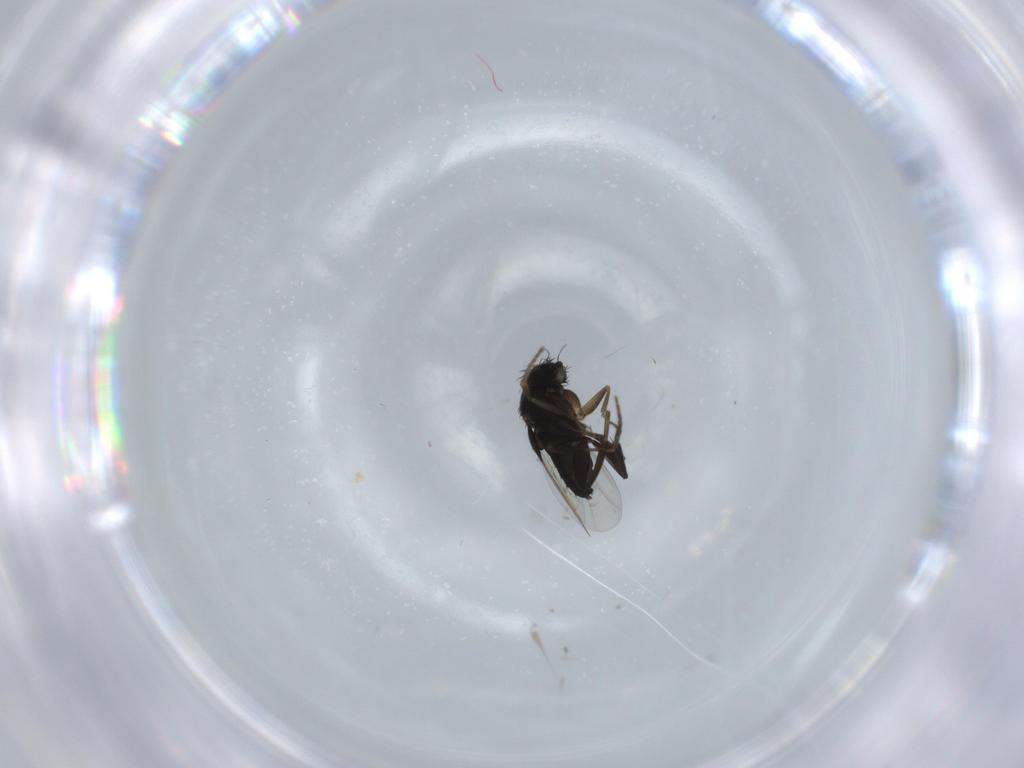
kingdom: Animalia
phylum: Arthropoda
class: Insecta
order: Diptera
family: Phoridae
